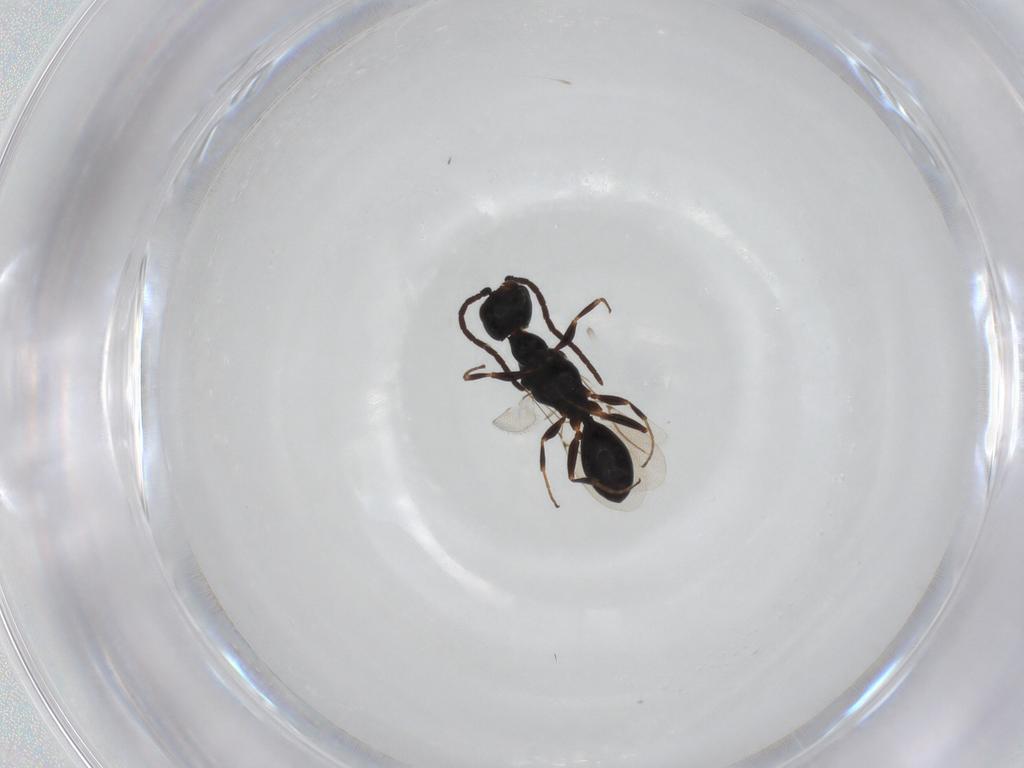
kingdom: Animalia
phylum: Arthropoda
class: Insecta
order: Hymenoptera
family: Bethylidae
